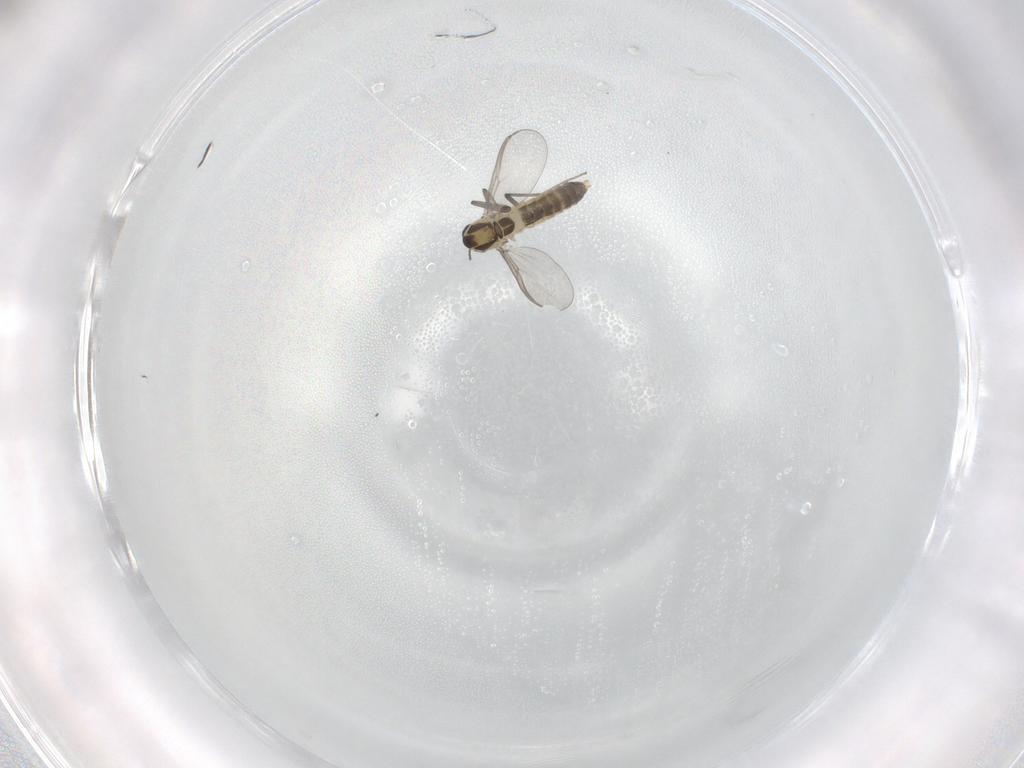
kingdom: Animalia
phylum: Arthropoda
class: Insecta
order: Diptera
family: Chironomidae
